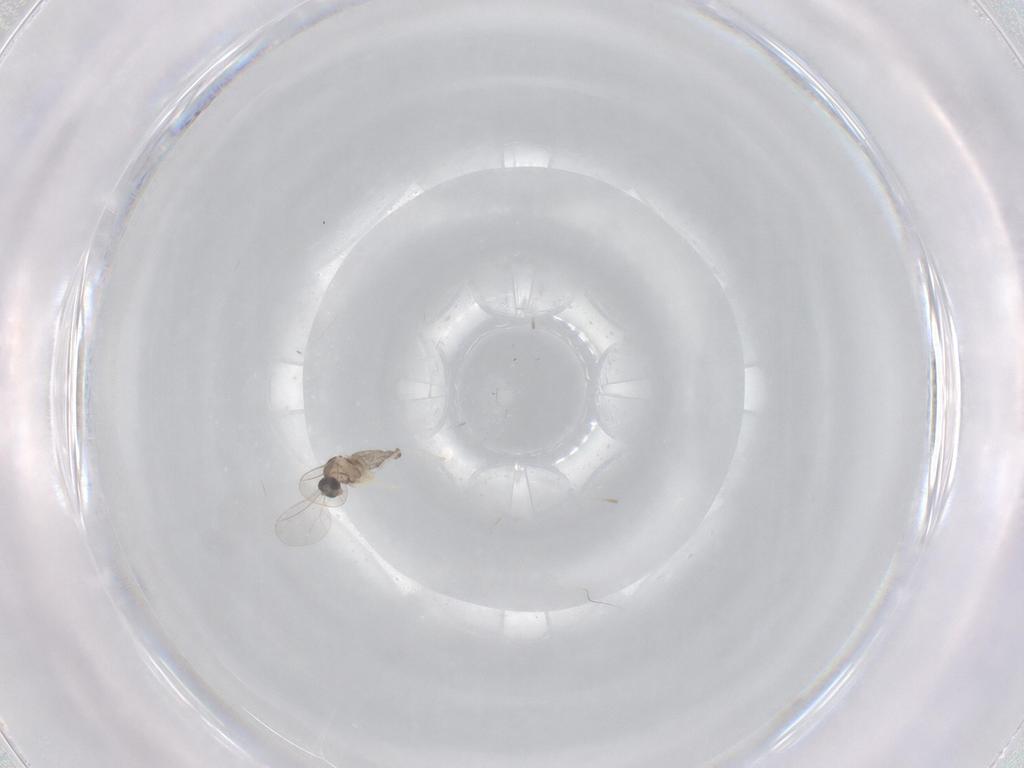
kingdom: Animalia
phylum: Arthropoda
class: Insecta
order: Diptera
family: Cecidomyiidae
